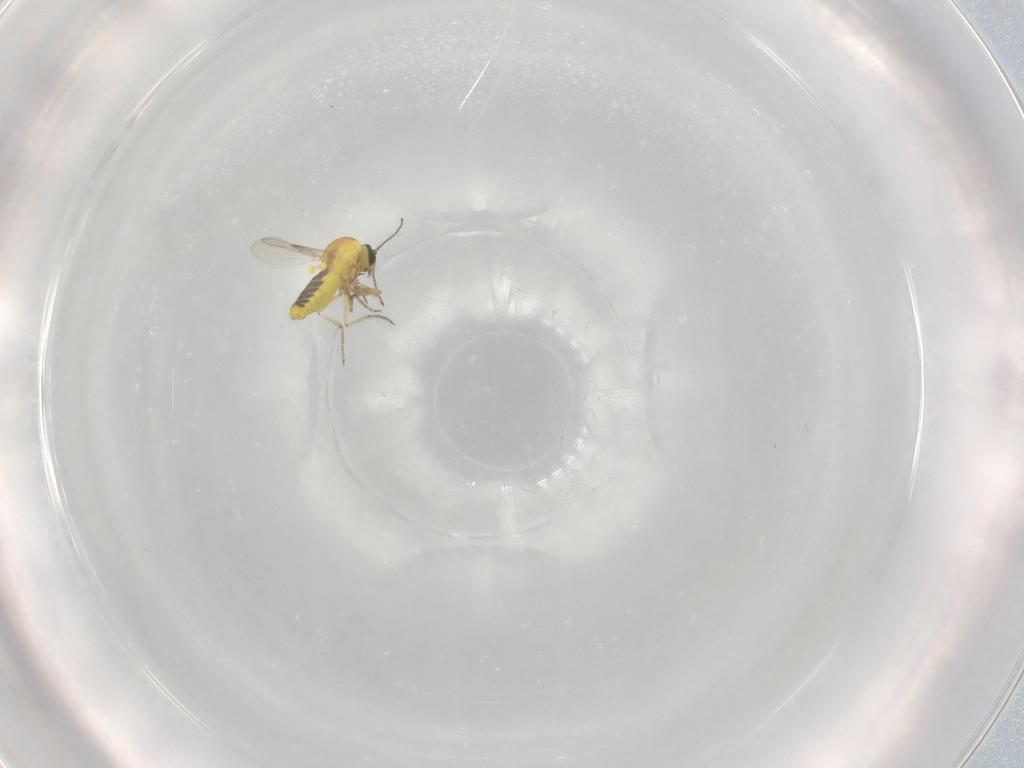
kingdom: Animalia
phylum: Arthropoda
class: Insecta
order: Diptera
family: Ceratopogonidae
